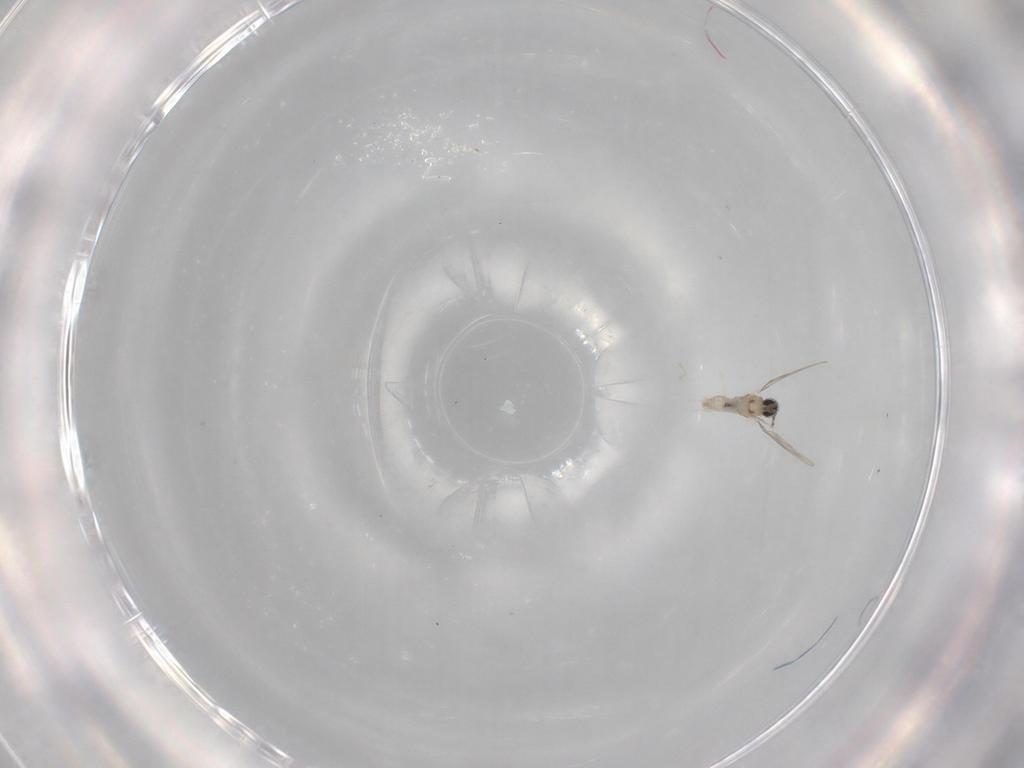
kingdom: Animalia
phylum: Arthropoda
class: Insecta
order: Diptera
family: Cecidomyiidae
